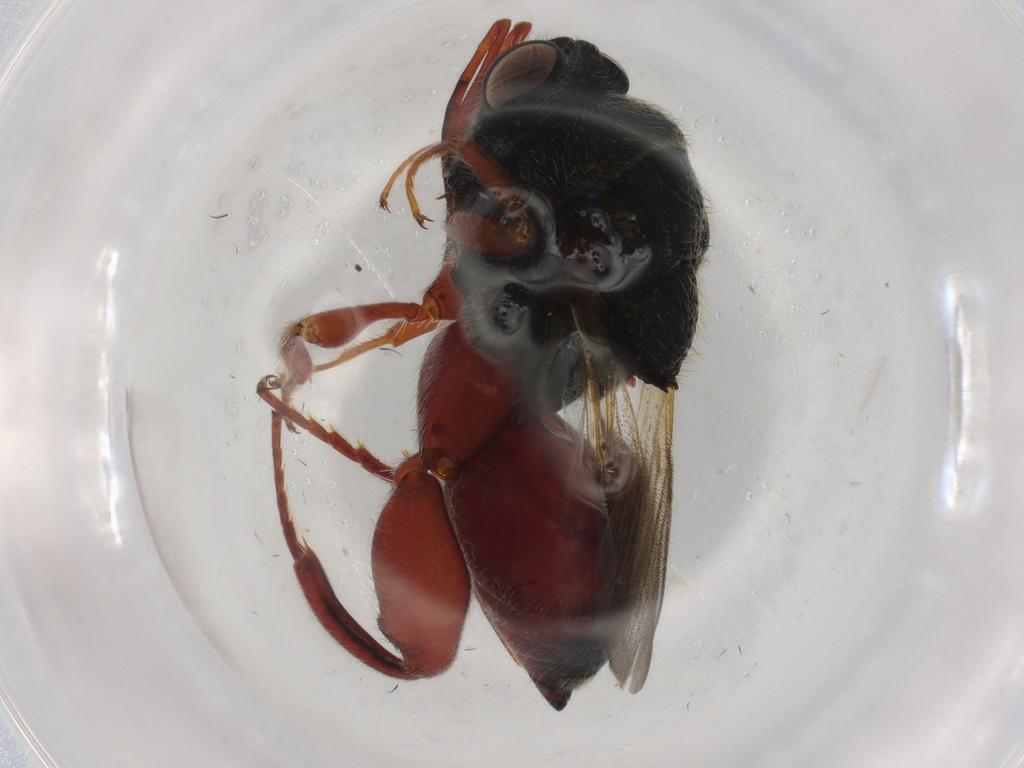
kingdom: Animalia
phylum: Arthropoda
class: Insecta
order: Hymenoptera
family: Chalcididae
